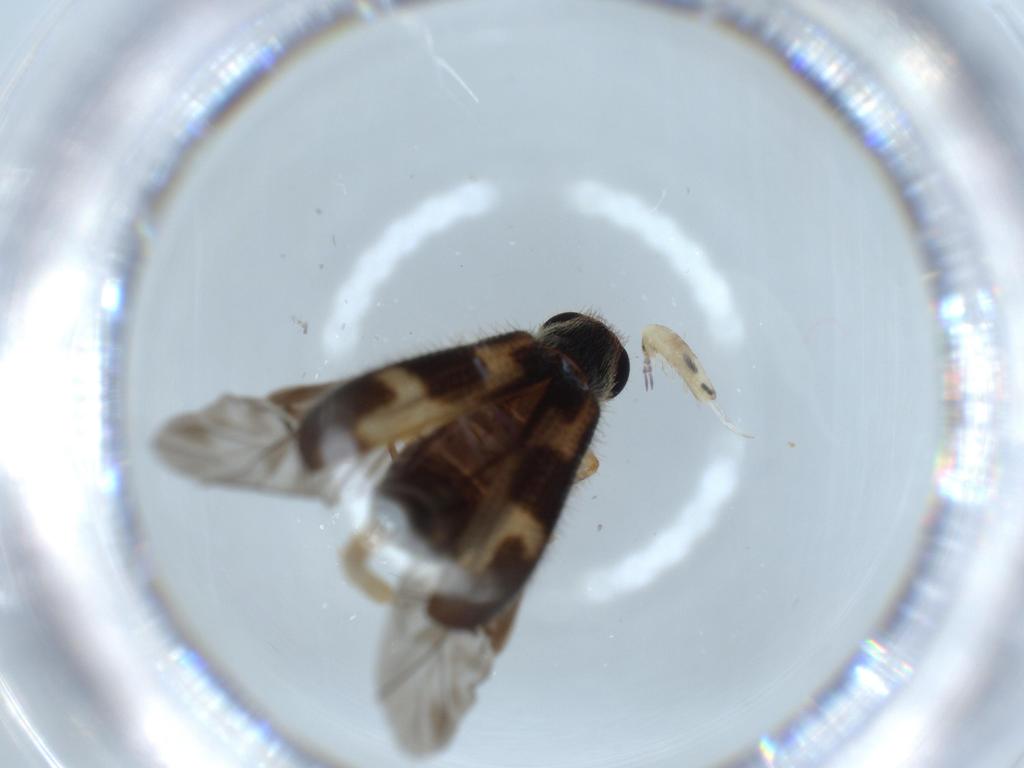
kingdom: Animalia
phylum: Arthropoda
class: Insecta
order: Coleoptera
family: Cleridae
